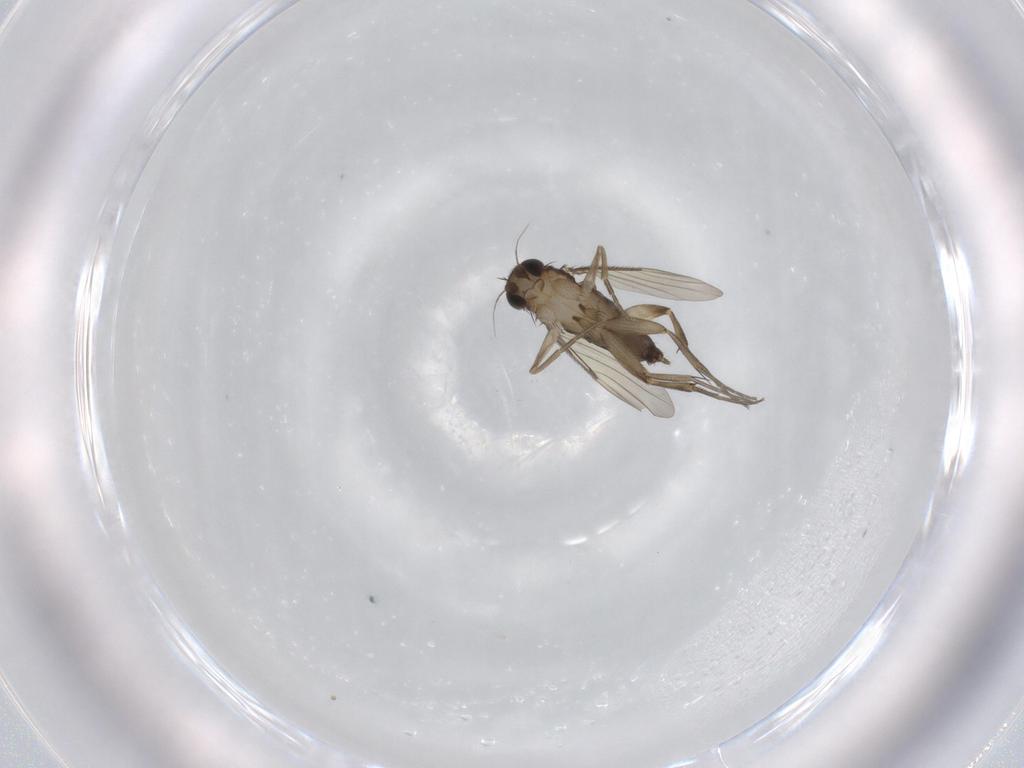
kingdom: Animalia
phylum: Arthropoda
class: Insecta
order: Diptera
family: Phoridae
